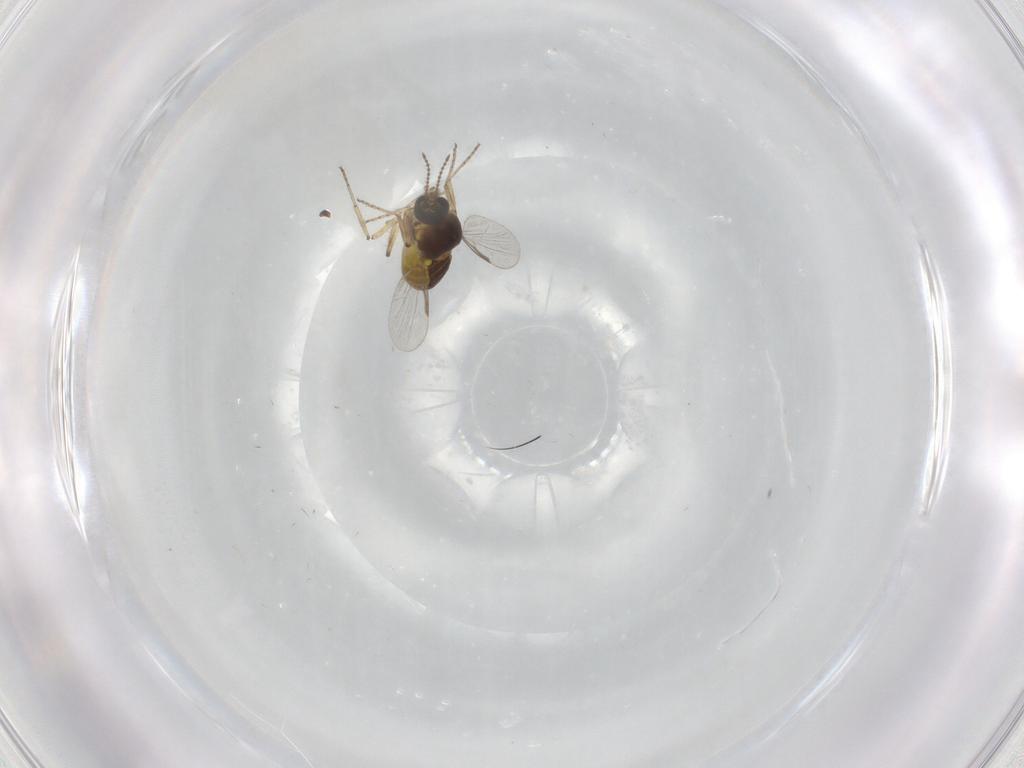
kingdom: Animalia
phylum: Arthropoda
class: Insecta
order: Diptera
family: Ceratopogonidae
